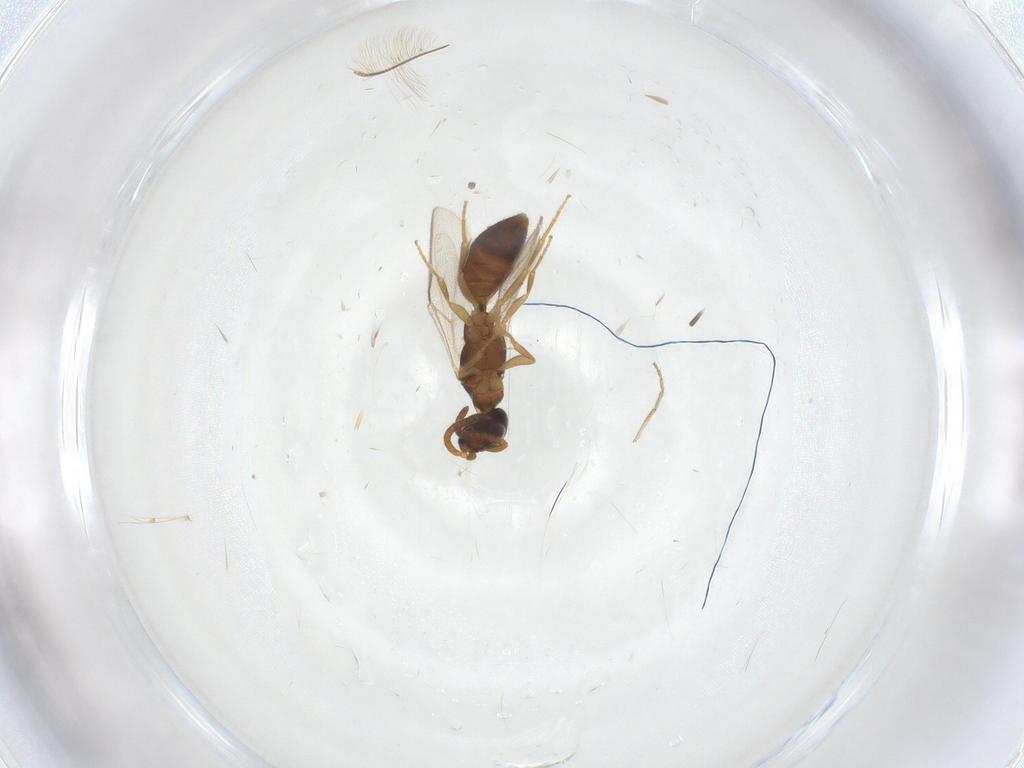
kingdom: Animalia
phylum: Arthropoda
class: Insecta
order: Hymenoptera
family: Bethylidae
